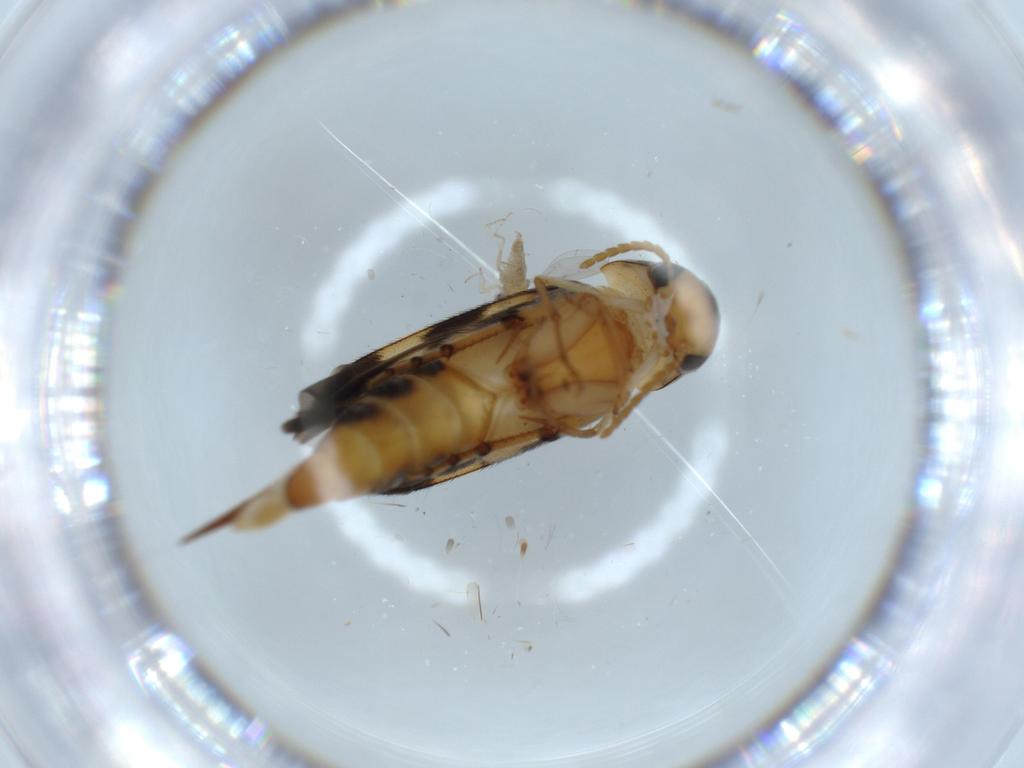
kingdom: Animalia
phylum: Arthropoda
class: Insecta
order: Coleoptera
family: Mordellidae
